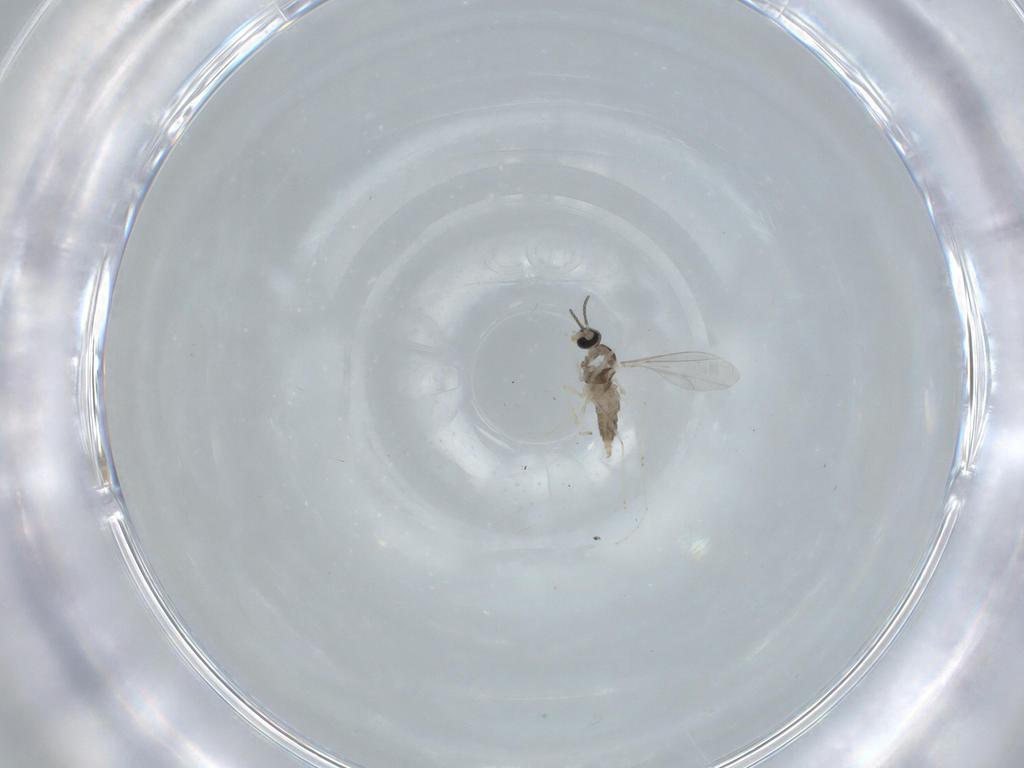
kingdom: Animalia
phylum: Arthropoda
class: Insecta
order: Diptera
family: Cecidomyiidae
